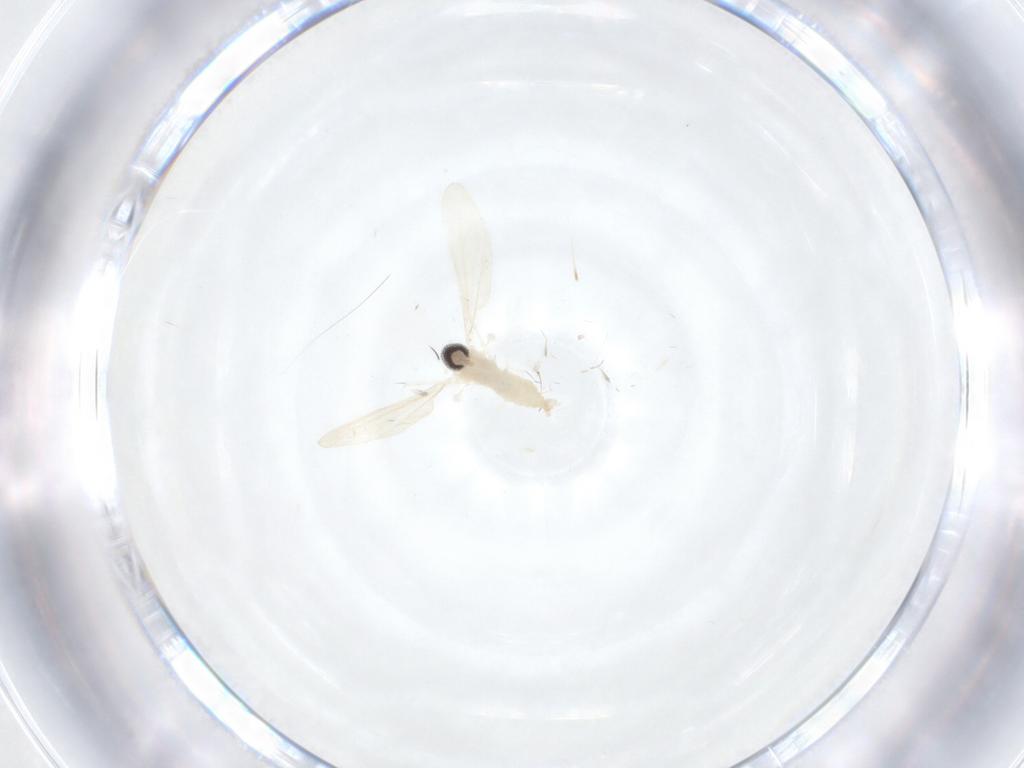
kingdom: Animalia
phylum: Arthropoda
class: Insecta
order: Diptera
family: Cecidomyiidae
